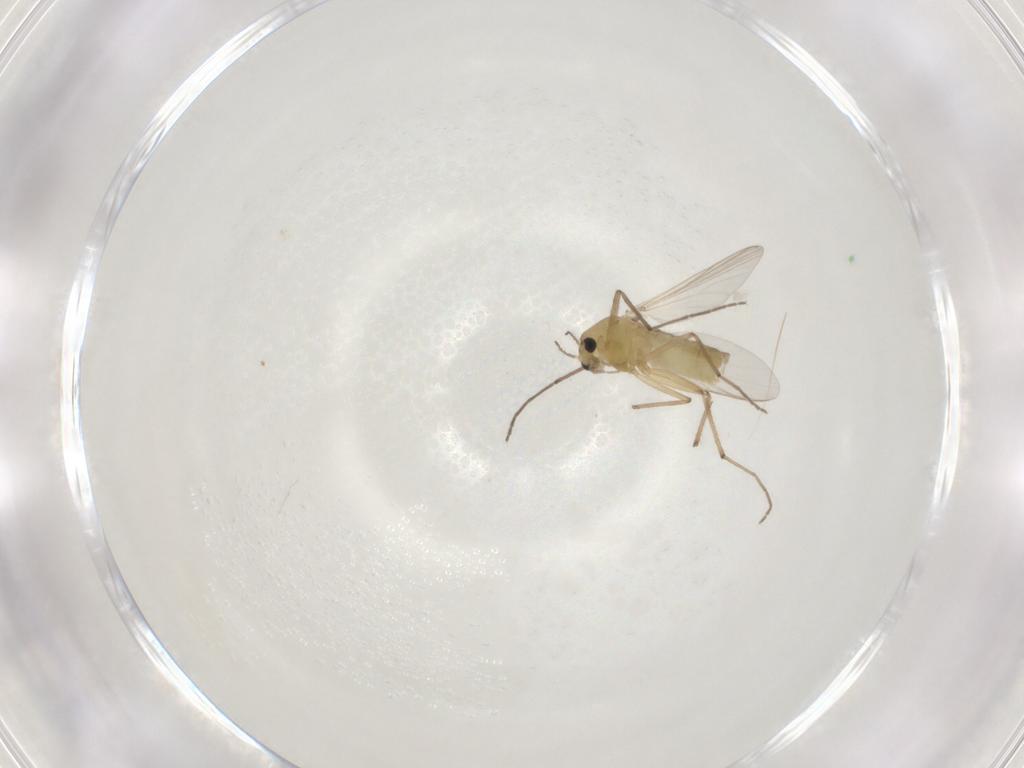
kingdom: Animalia
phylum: Arthropoda
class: Insecta
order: Diptera
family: Chironomidae
